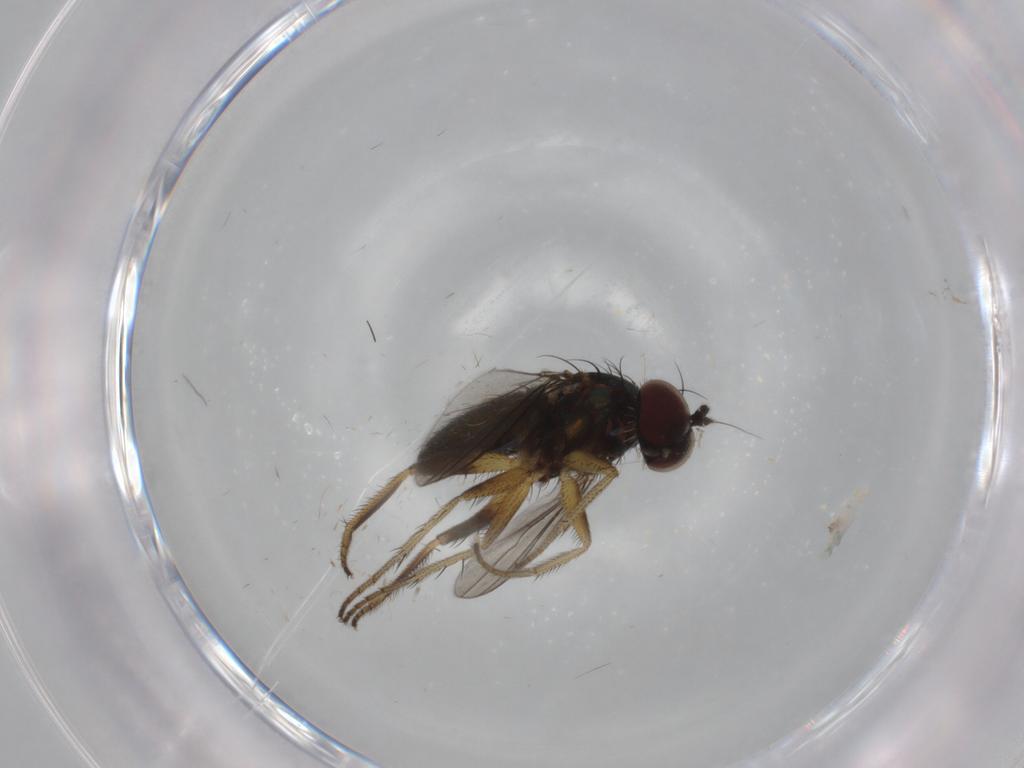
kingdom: Animalia
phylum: Arthropoda
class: Insecta
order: Diptera
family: Dolichopodidae
